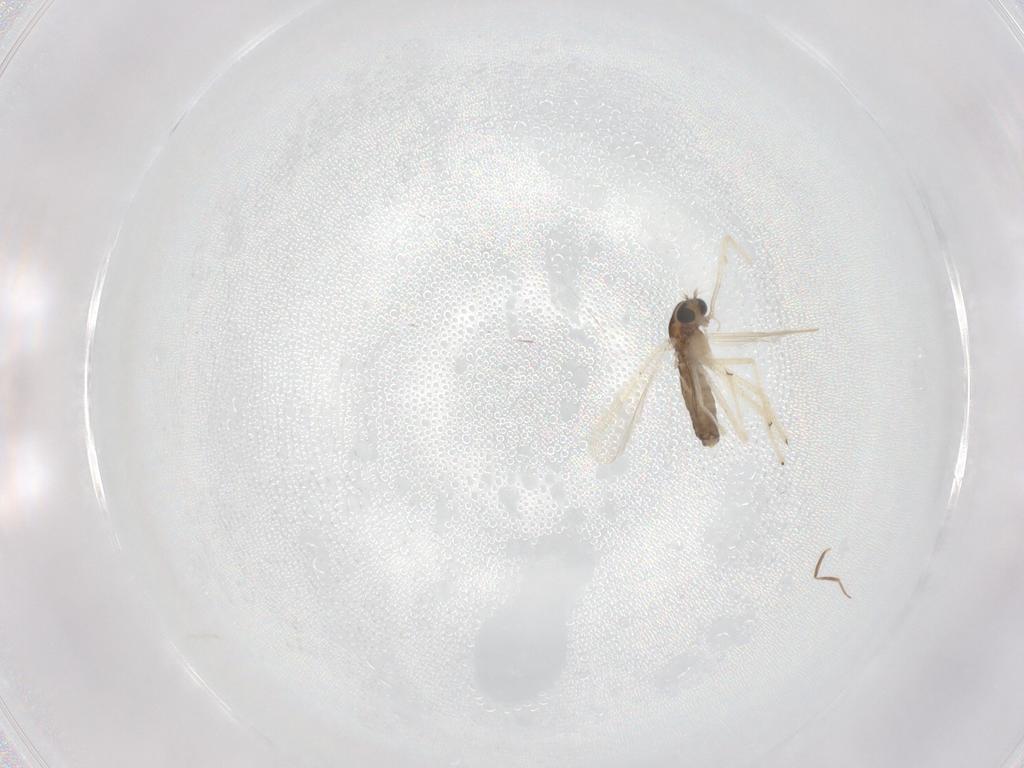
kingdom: Animalia
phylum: Arthropoda
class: Insecta
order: Diptera
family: Chironomidae
